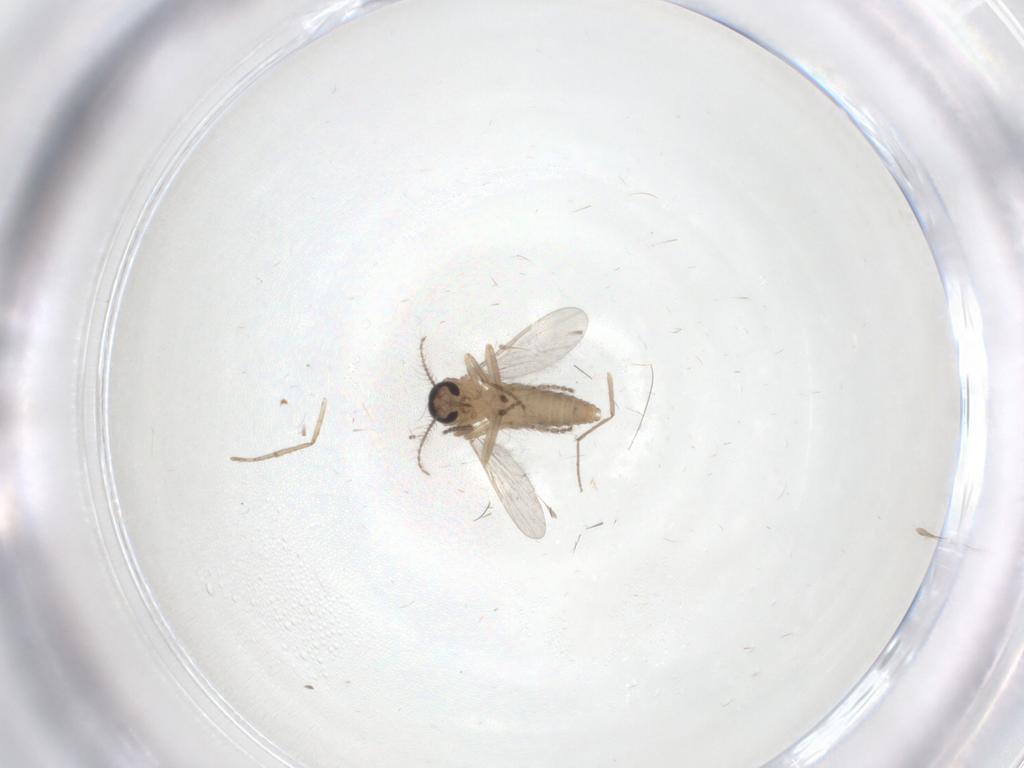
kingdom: Animalia
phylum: Arthropoda
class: Insecta
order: Diptera
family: Ceratopogonidae
